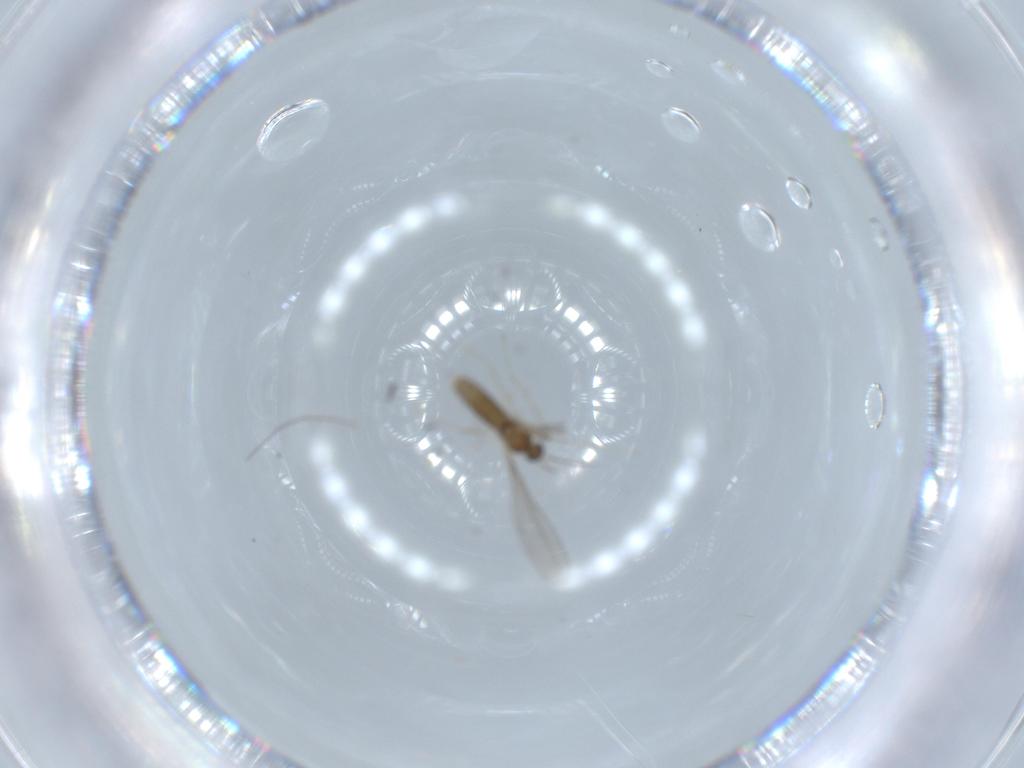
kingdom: Animalia
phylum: Arthropoda
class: Insecta
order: Diptera
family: Cecidomyiidae
